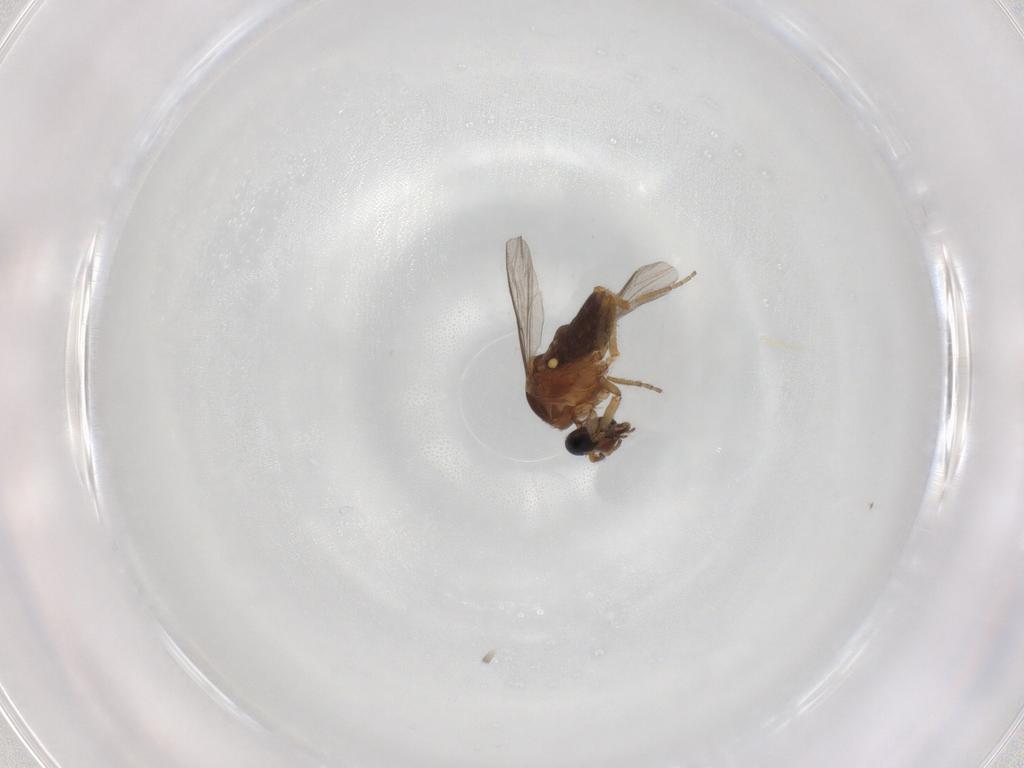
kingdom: Animalia
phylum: Arthropoda
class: Insecta
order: Diptera
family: Ceratopogonidae
